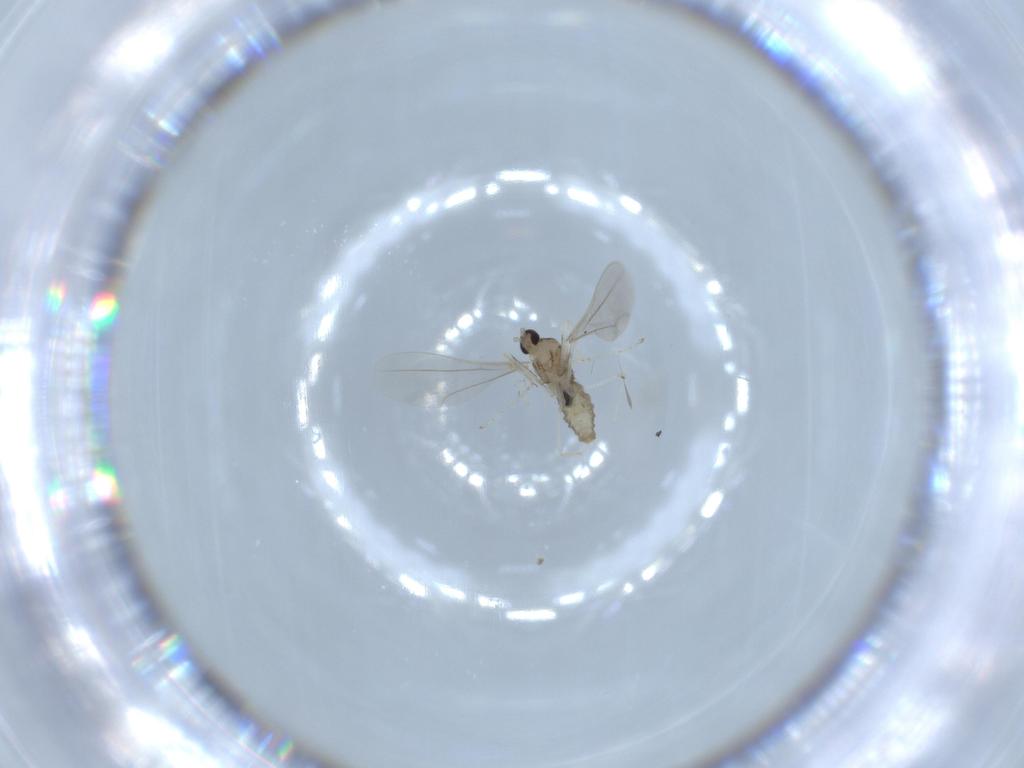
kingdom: Animalia
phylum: Arthropoda
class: Insecta
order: Diptera
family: Cecidomyiidae
